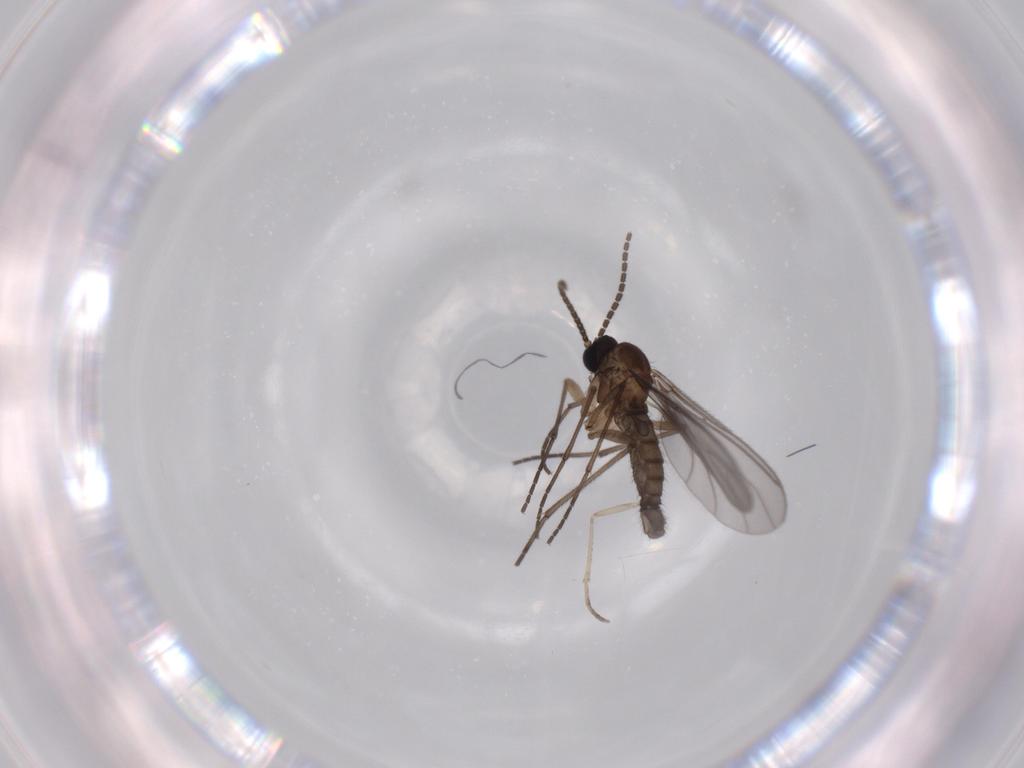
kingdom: Animalia
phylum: Arthropoda
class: Insecta
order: Diptera
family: Sciaridae
